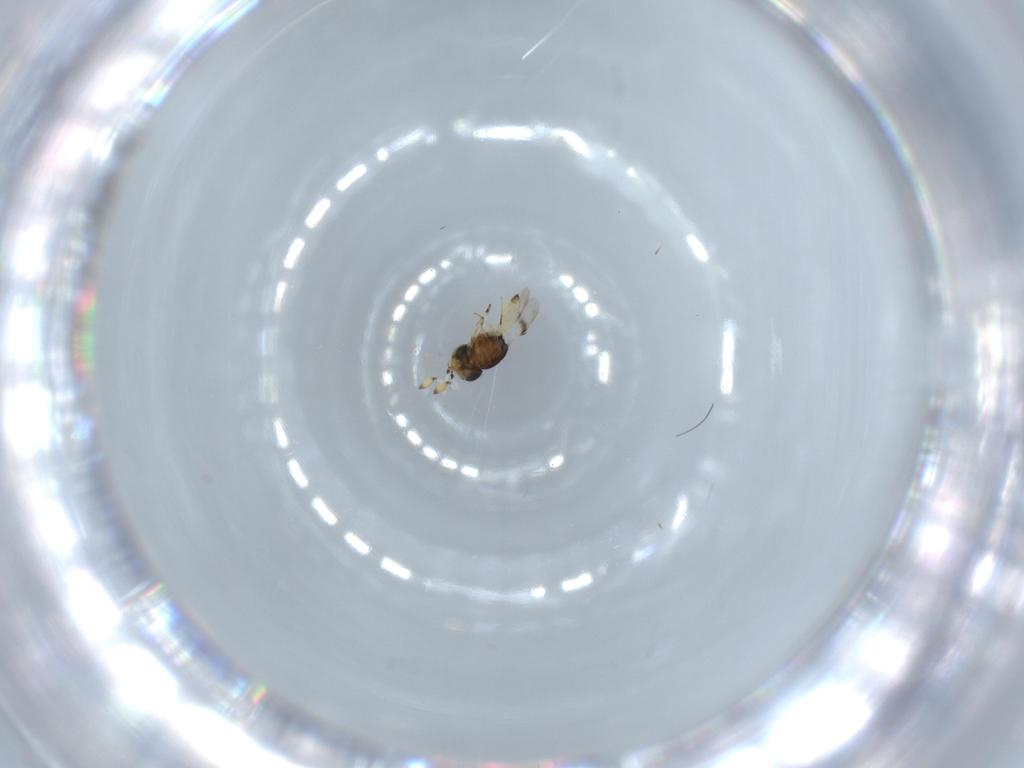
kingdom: Animalia
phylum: Arthropoda
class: Insecta
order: Hymenoptera
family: Scelionidae
